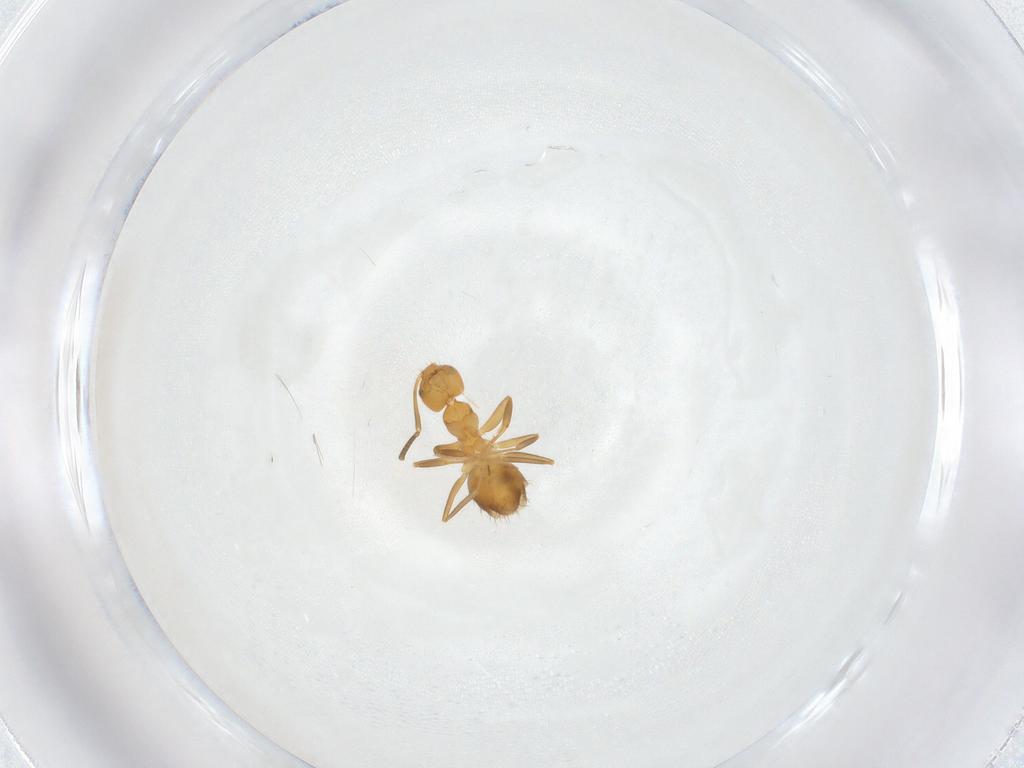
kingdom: Animalia
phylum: Arthropoda
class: Insecta
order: Hymenoptera
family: Formicidae
